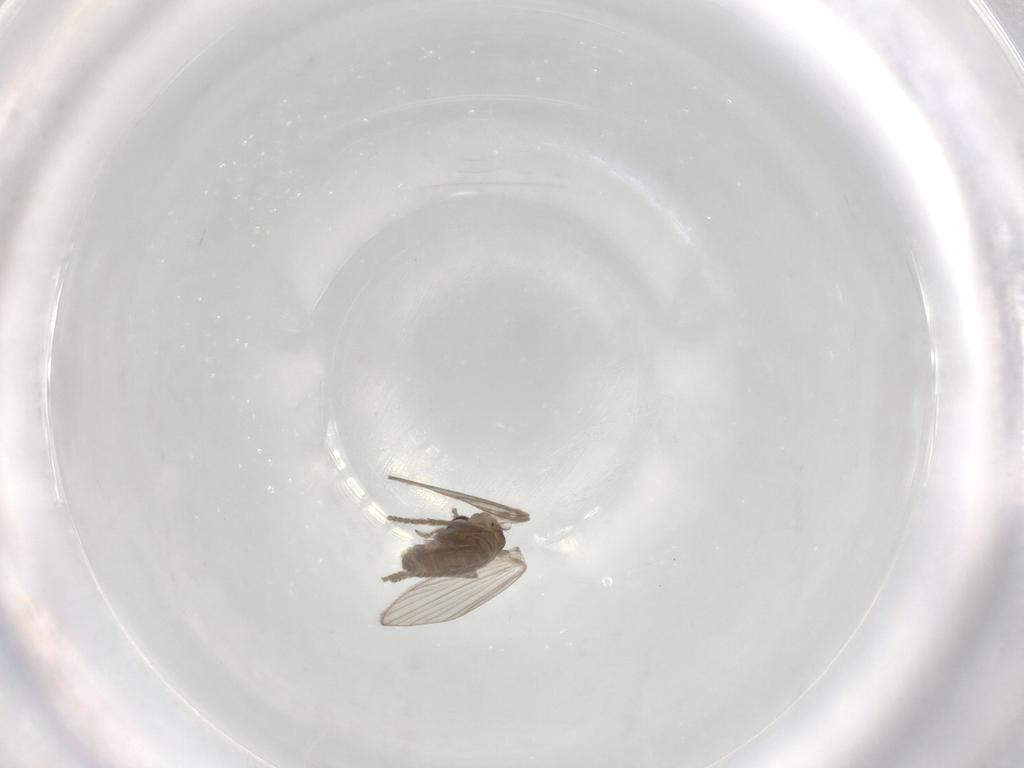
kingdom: Animalia
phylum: Arthropoda
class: Insecta
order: Diptera
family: Psychodidae
